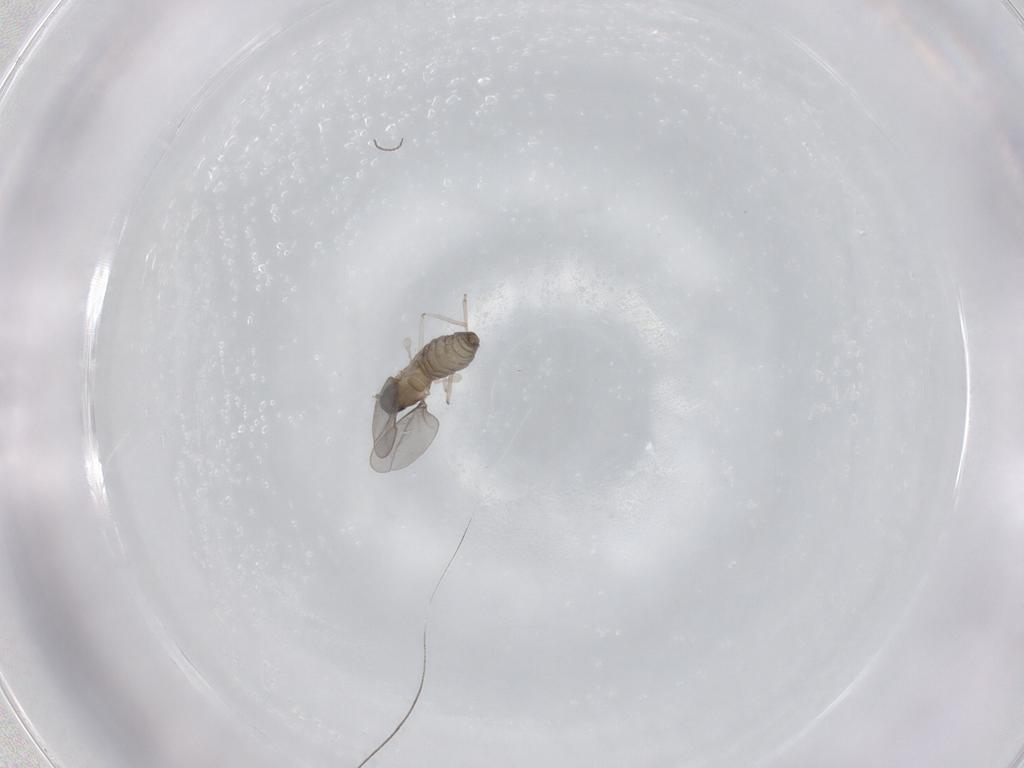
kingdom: Animalia
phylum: Arthropoda
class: Insecta
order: Diptera
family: Cecidomyiidae
